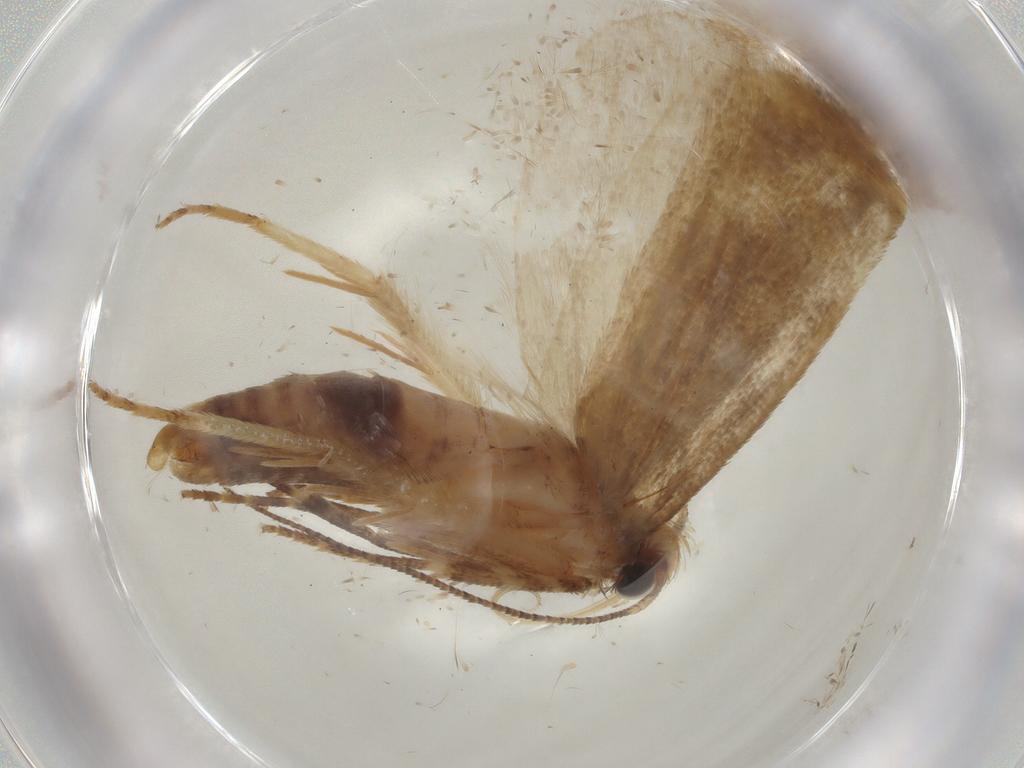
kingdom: Animalia
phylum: Arthropoda
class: Insecta
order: Lepidoptera
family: Gelechiidae
